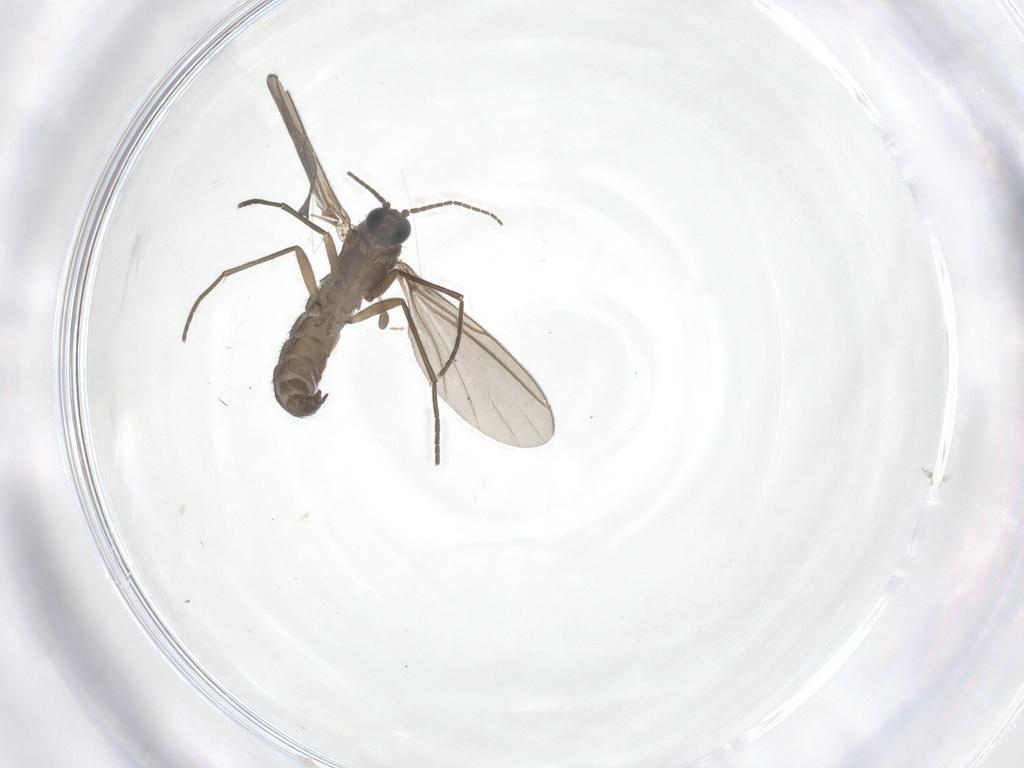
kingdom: Animalia
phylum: Arthropoda
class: Insecta
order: Diptera
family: Sciaridae
